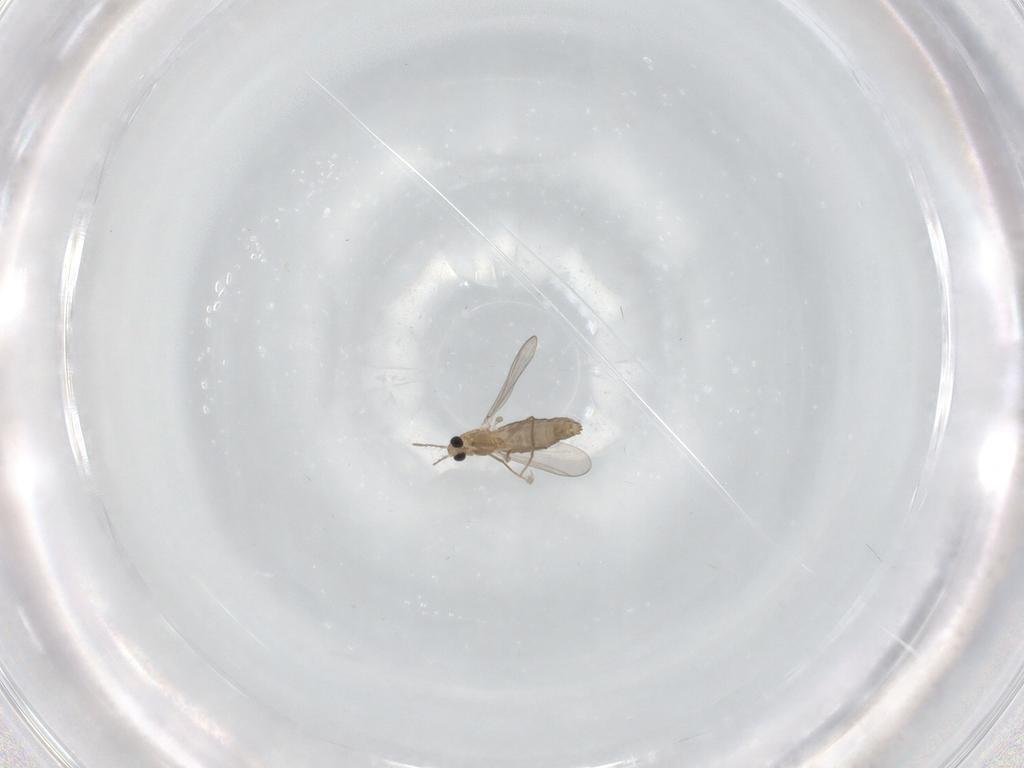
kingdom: Animalia
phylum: Arthropoda
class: Insecta
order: Diptera
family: Chironomidae
